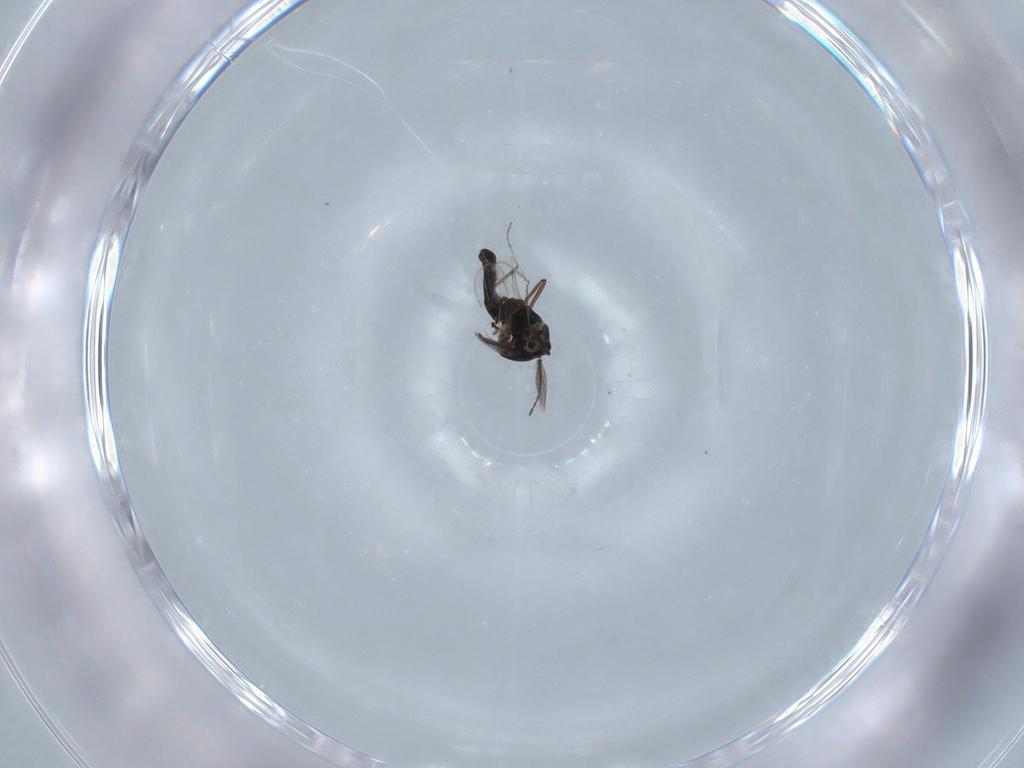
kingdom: Animalia
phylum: Arthropoda
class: Insecta
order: Diptera
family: Ceratopogonidae
